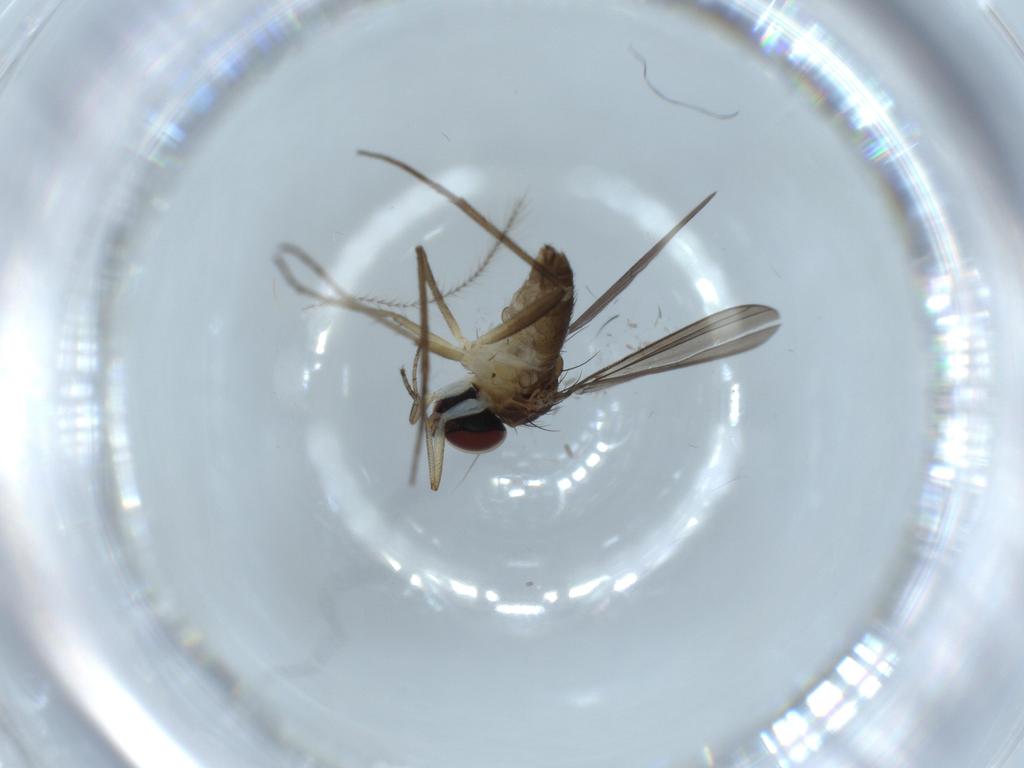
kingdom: Animalia
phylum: Arthropoda
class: Insecta
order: Diptera
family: Dolichopodidae
